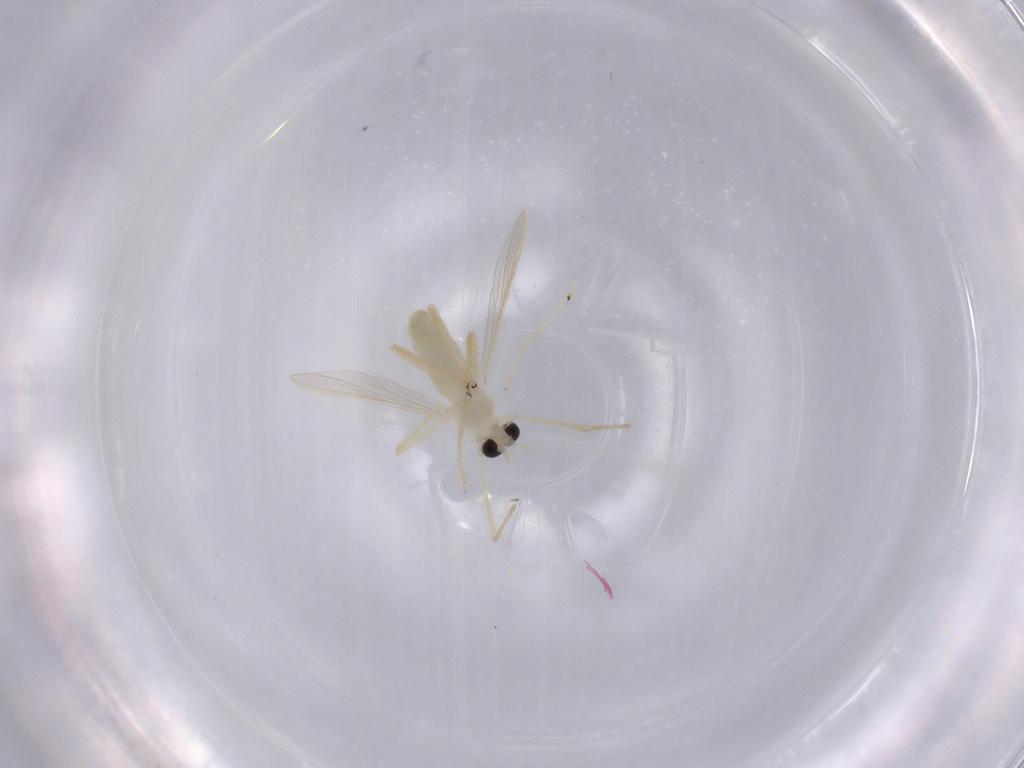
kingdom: Animalia
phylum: Arthropoda
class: Insecta
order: Diptera
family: Chironomidae
